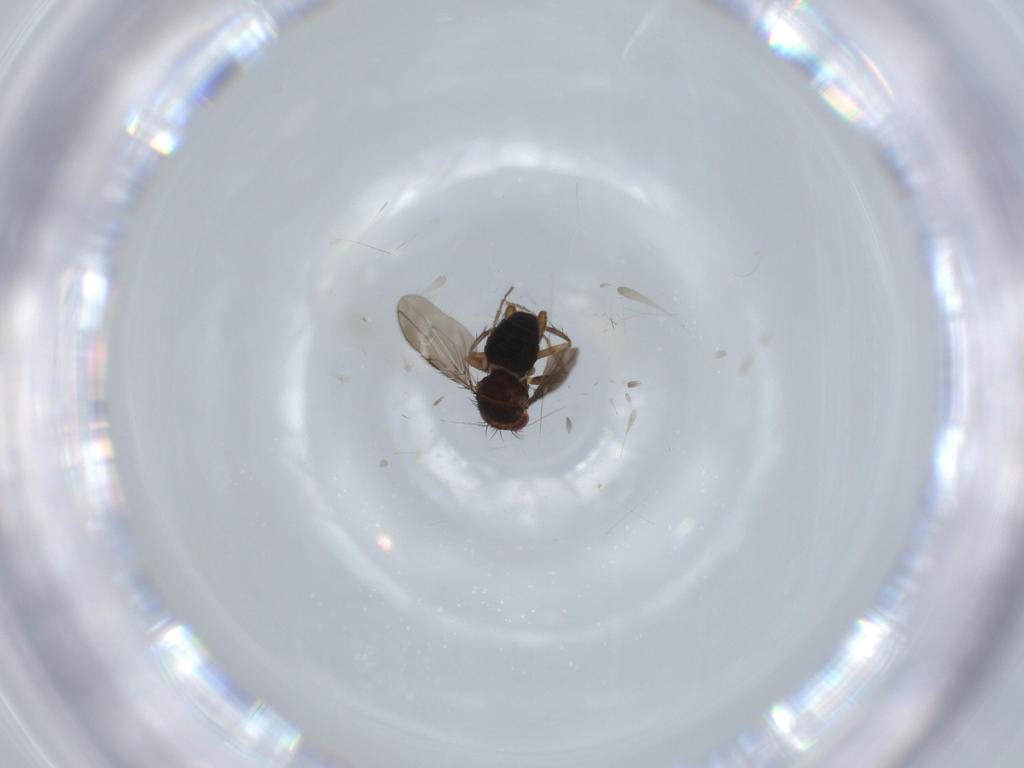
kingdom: Animalia
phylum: Arthropoda
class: Insecta
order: Diptera
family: Sphaeroceridae
